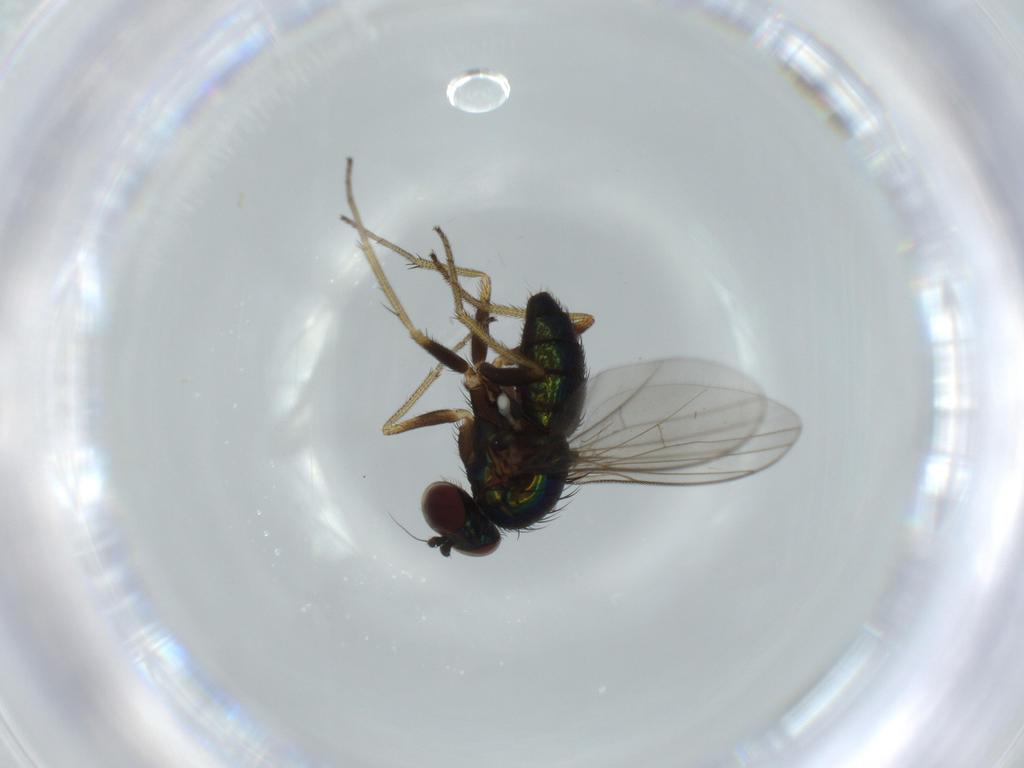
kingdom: Animalia
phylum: Arthropoda
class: Insecta
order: Diptera
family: Dolichopodidae
